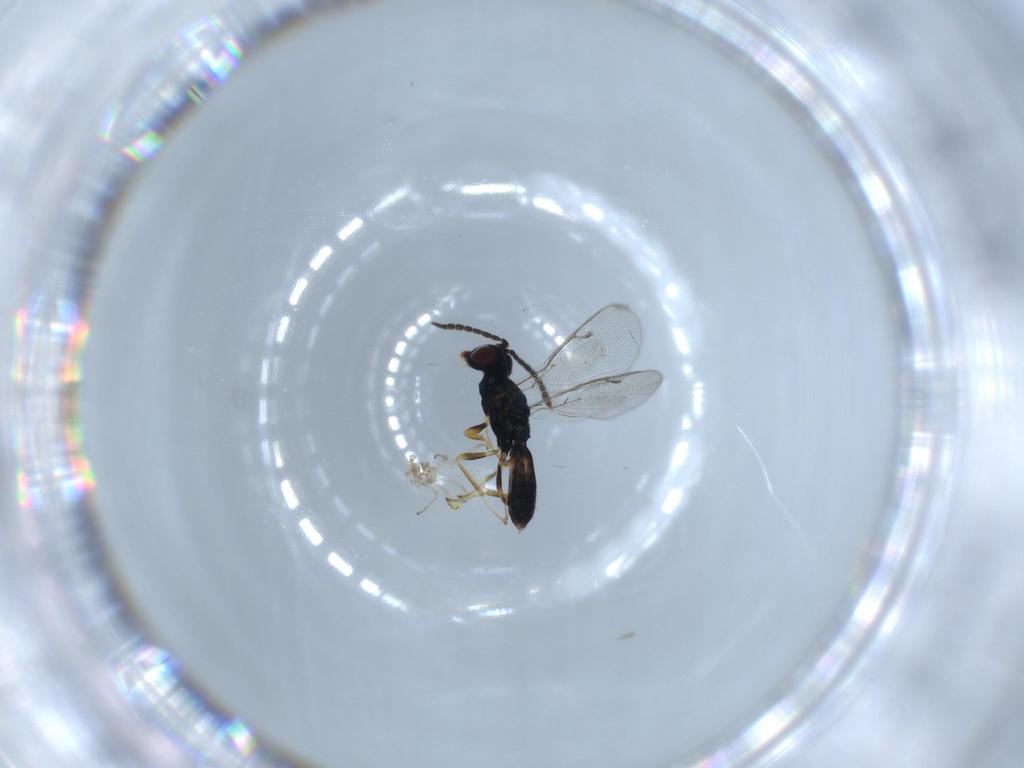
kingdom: Animalia
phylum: Arthropoda
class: Insecta
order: Hymenoptera
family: Pteromalidae
